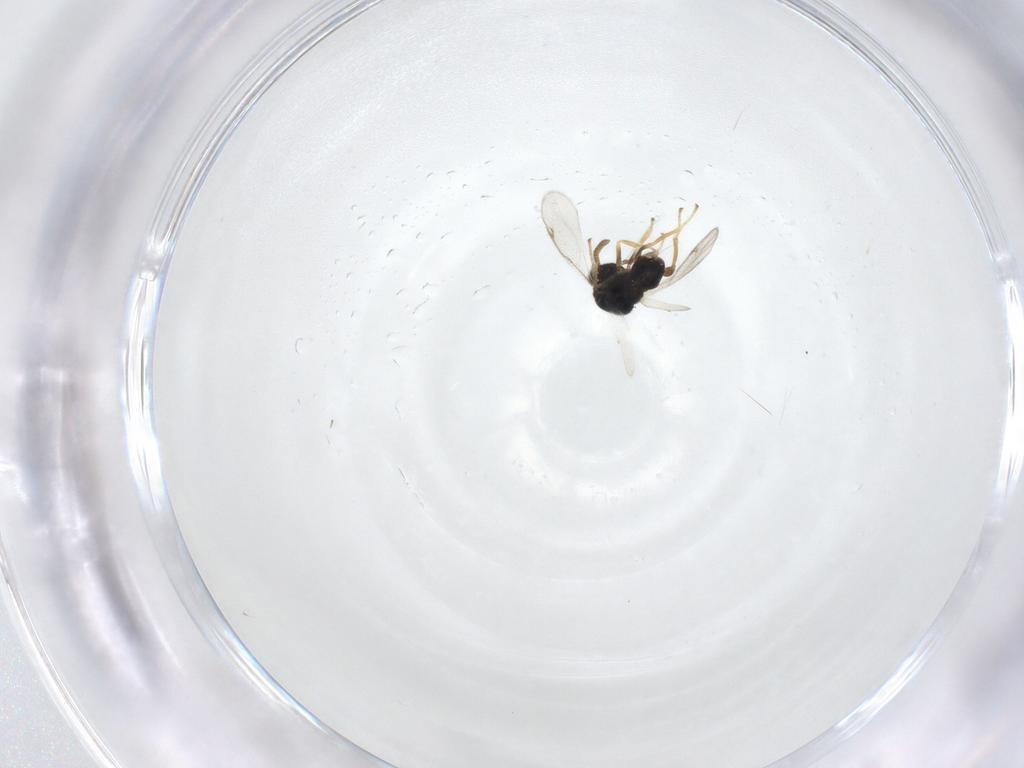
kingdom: Animalia
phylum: Arthropoda
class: Insecta
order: Diptera
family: Limoniidae
